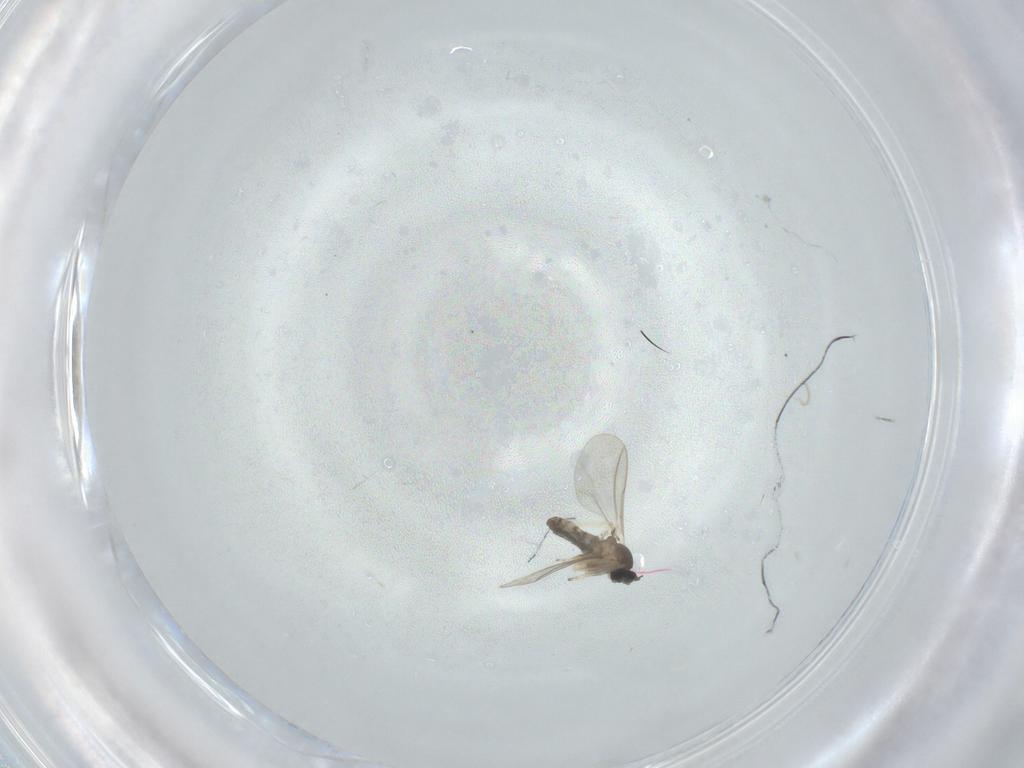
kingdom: Animalia
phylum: Arthropoda
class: Insecta
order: Diptera
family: Cecidomyiidae
